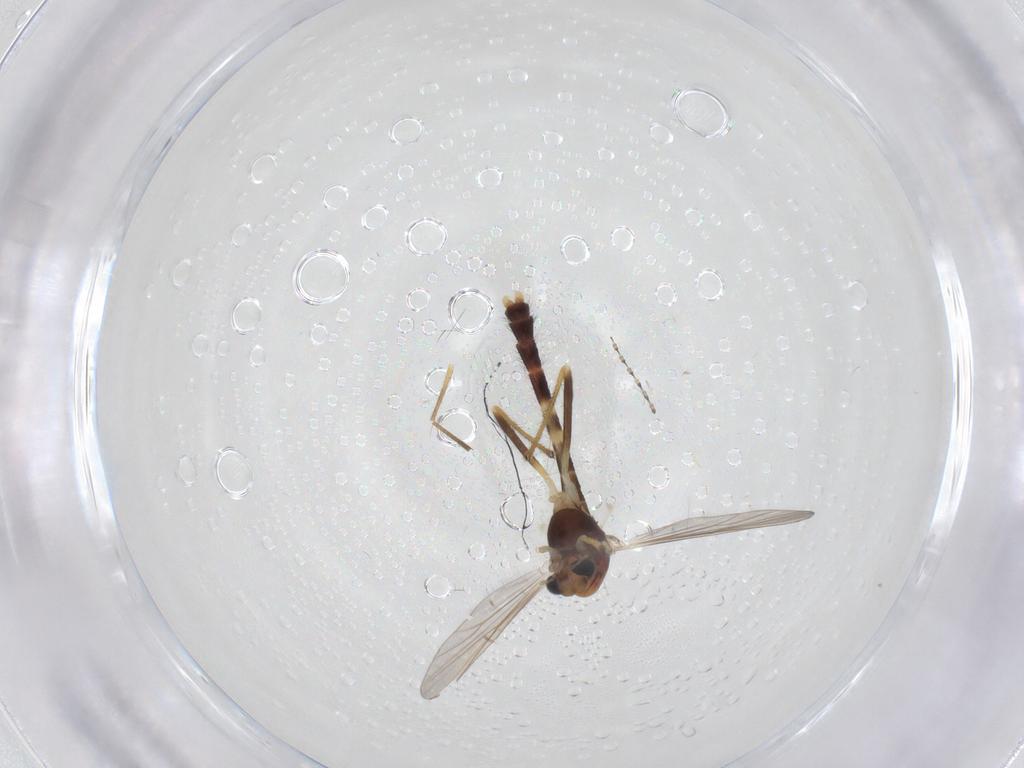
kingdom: Animalia
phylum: Arthropoda
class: Insecta
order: Diptera
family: Cecidomyiidae
